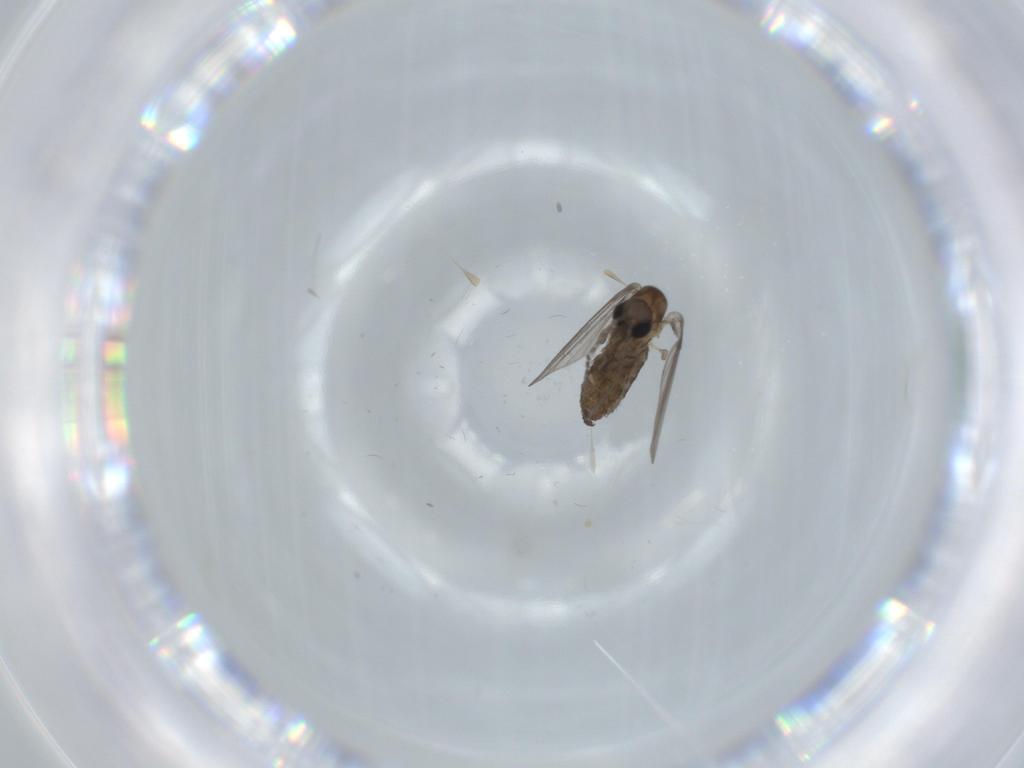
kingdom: Animalia
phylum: Arthropoda
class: Insecta
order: Diptera
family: Psychodidae
